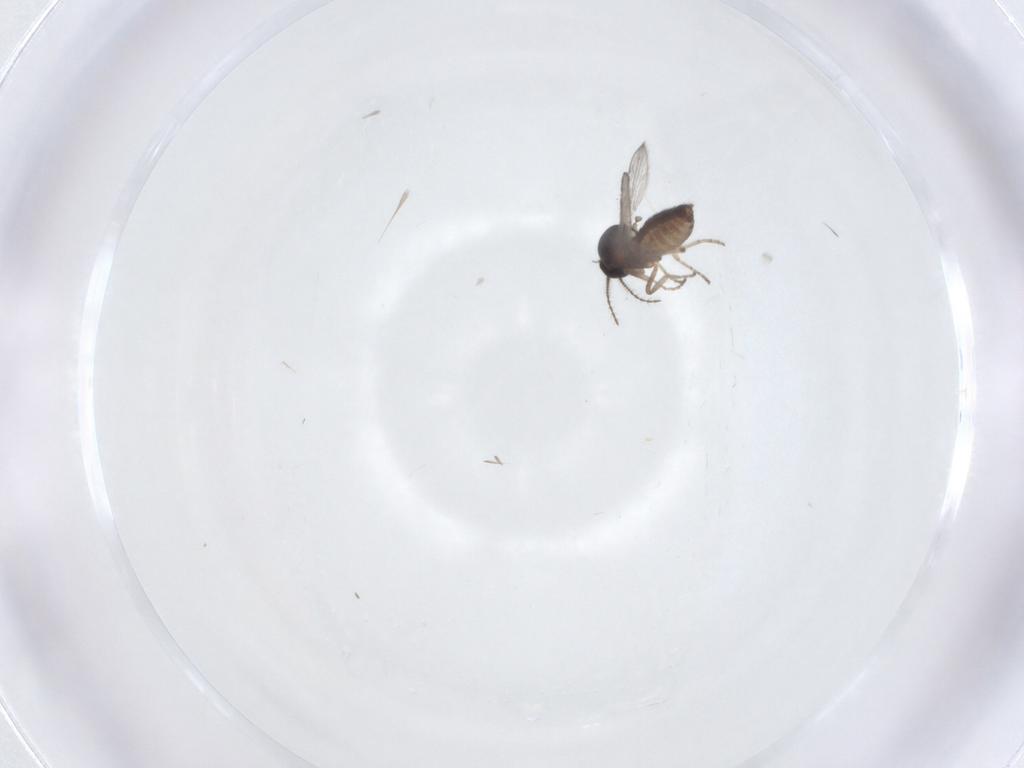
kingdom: Animalia
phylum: Arthropoda
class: Insecta
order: Diptera
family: Ceratopogonidae
